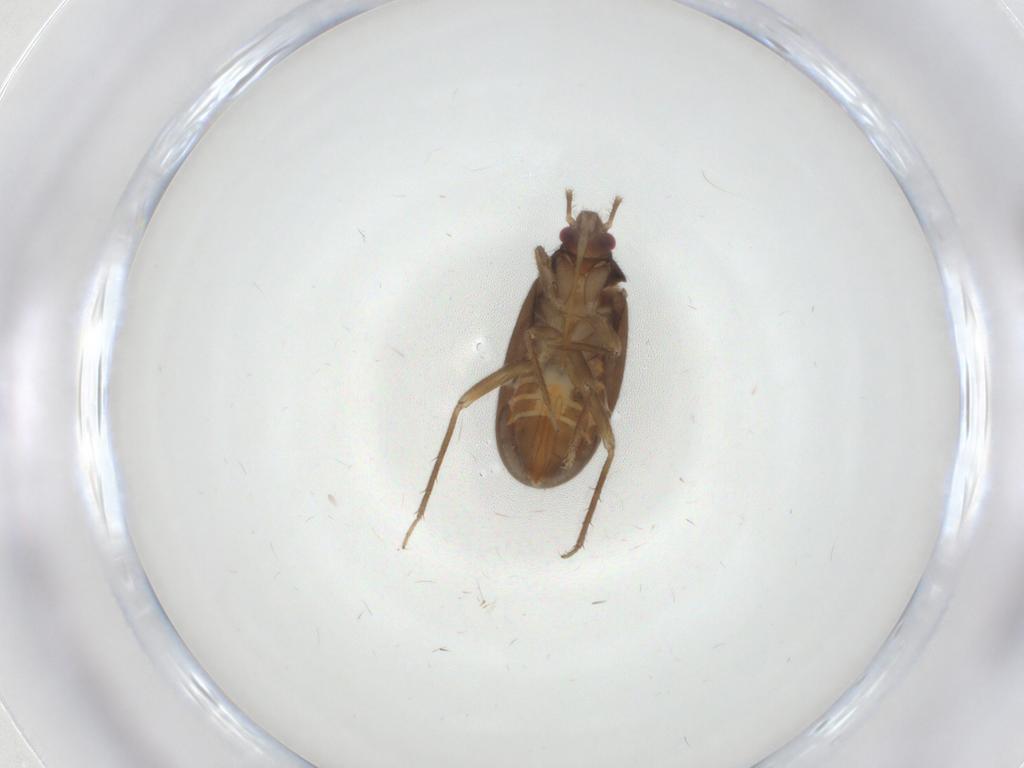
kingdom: Animalia
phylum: Arthropoda
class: Insecta
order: Hemiptera
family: Ceratocombidae
